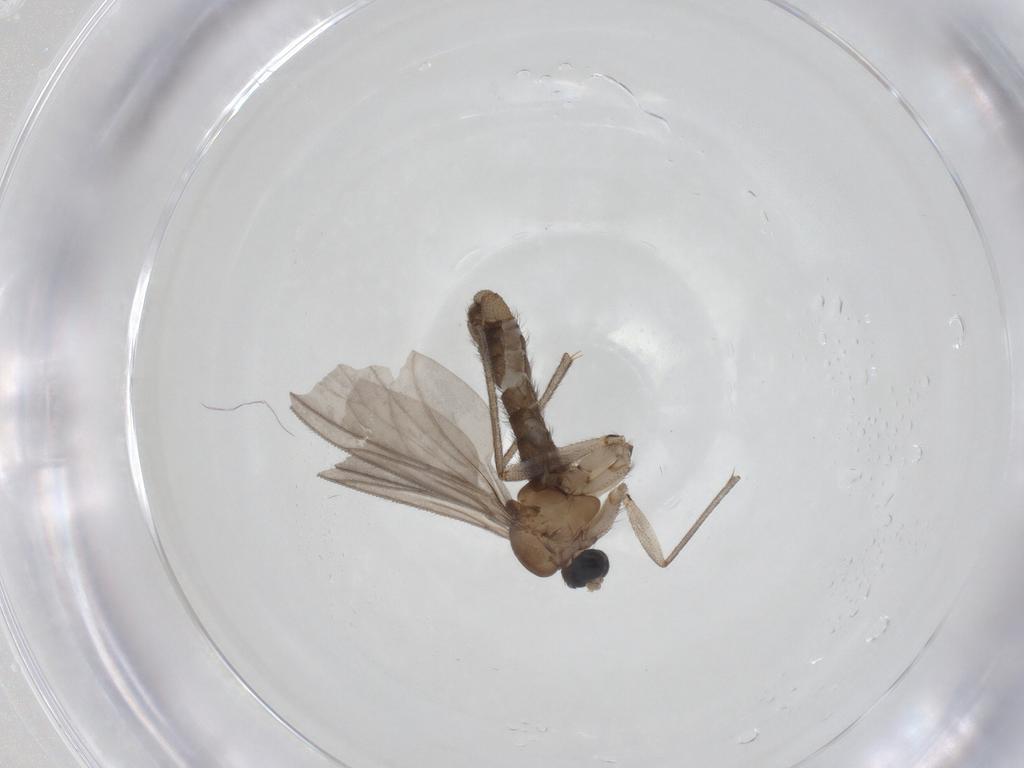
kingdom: Animalia
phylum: Arthropoda
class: Insecta
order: Diptera
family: Sciaridae
